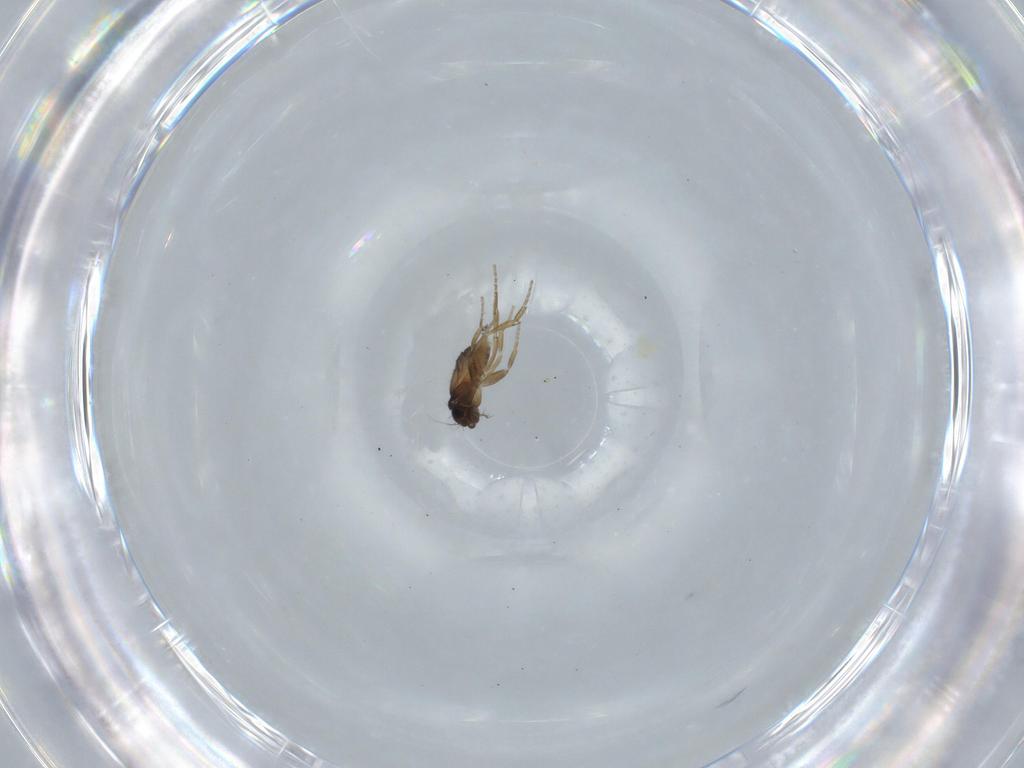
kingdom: Animalia
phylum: Arthropoda
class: Insecta
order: Diptera
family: Phoridae
